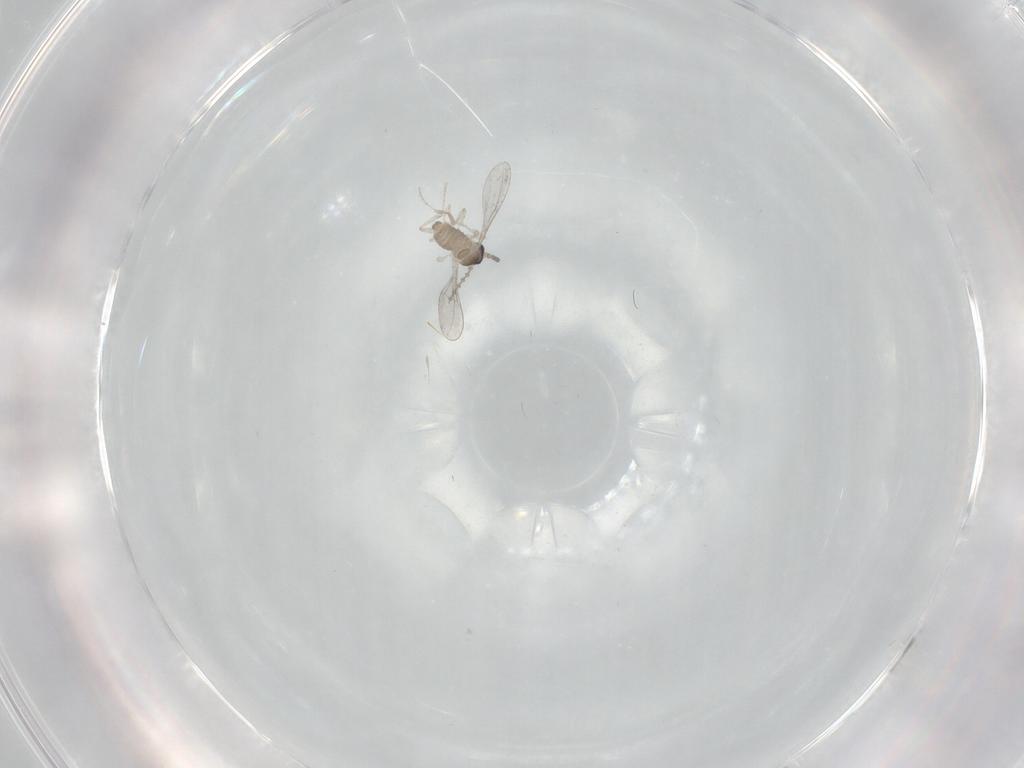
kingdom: Animalia
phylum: Arthropoda
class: Insecta
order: Diptera
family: Cecidomyiidae
